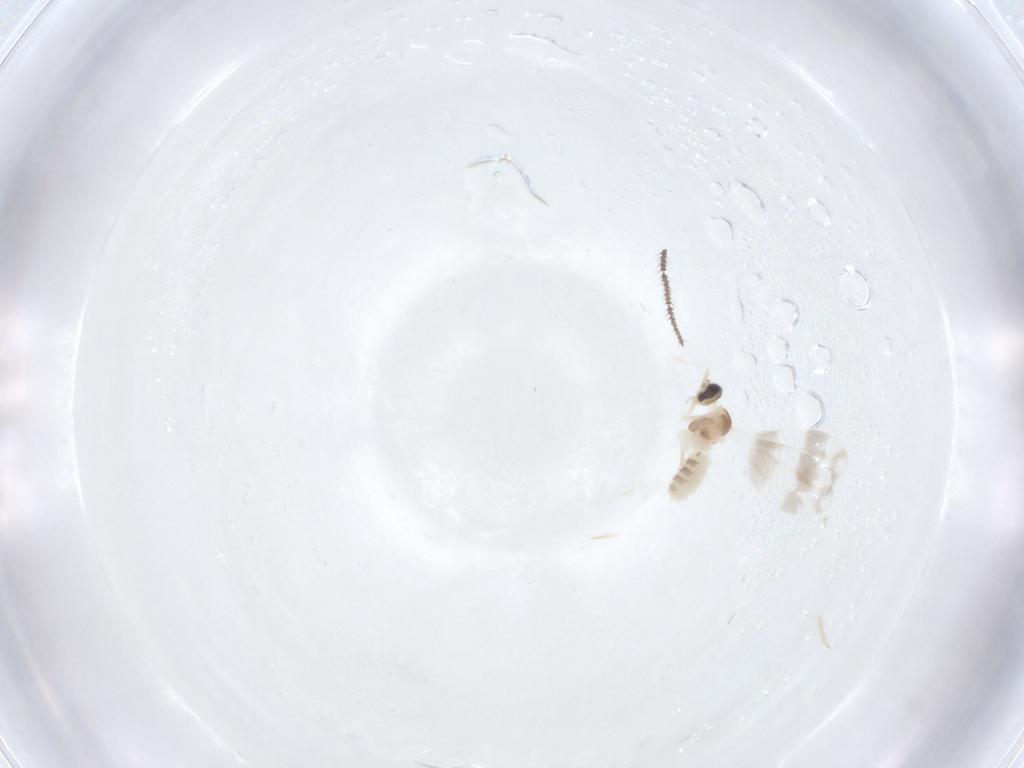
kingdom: Animalia
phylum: Arthropoda
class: Insecta
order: Diptera
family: Cecidomyiidae
